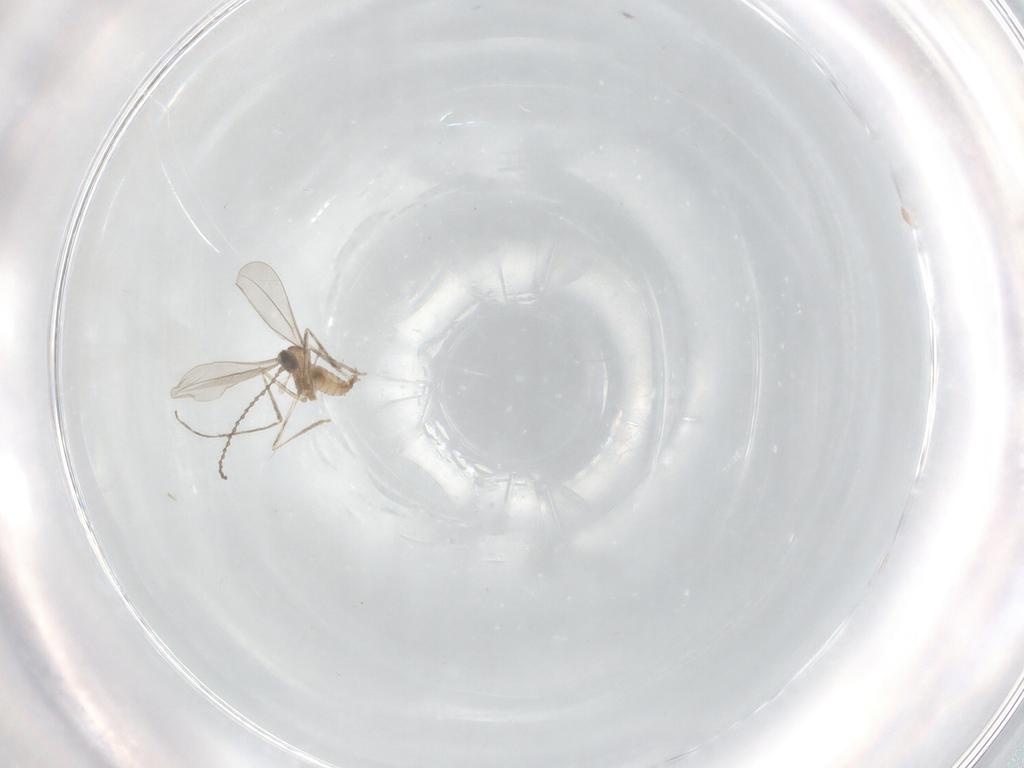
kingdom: Animalia
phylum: Arthropoda
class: Insecta
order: Diptera
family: Cecidomyiidae
